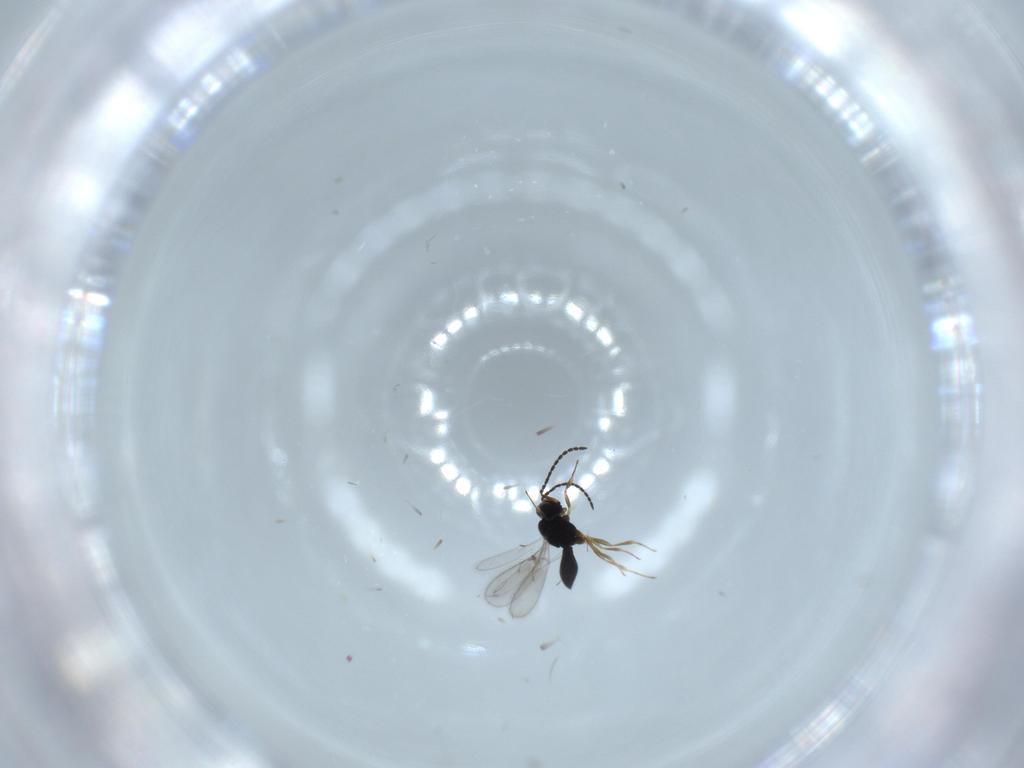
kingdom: Animalia
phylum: Arthropoda
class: Insecta
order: Hymenoptera
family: Scelionidae
